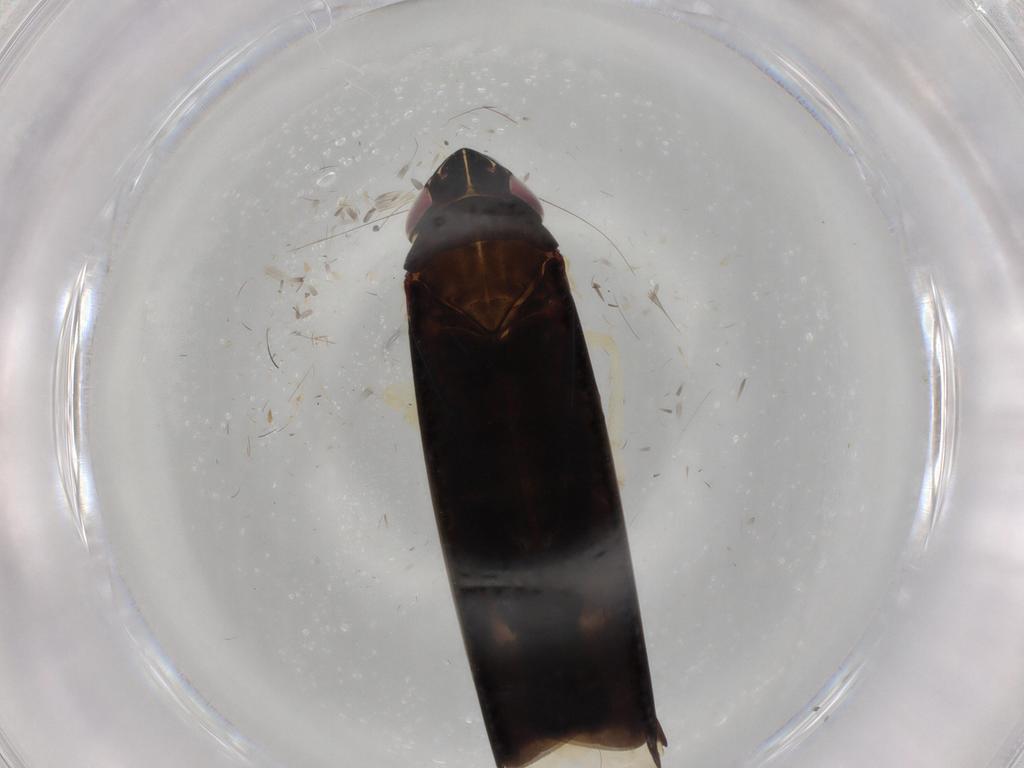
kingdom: Animalia
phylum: Arthropoda
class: Insecta
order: Hemiptera
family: Cicadellidae
